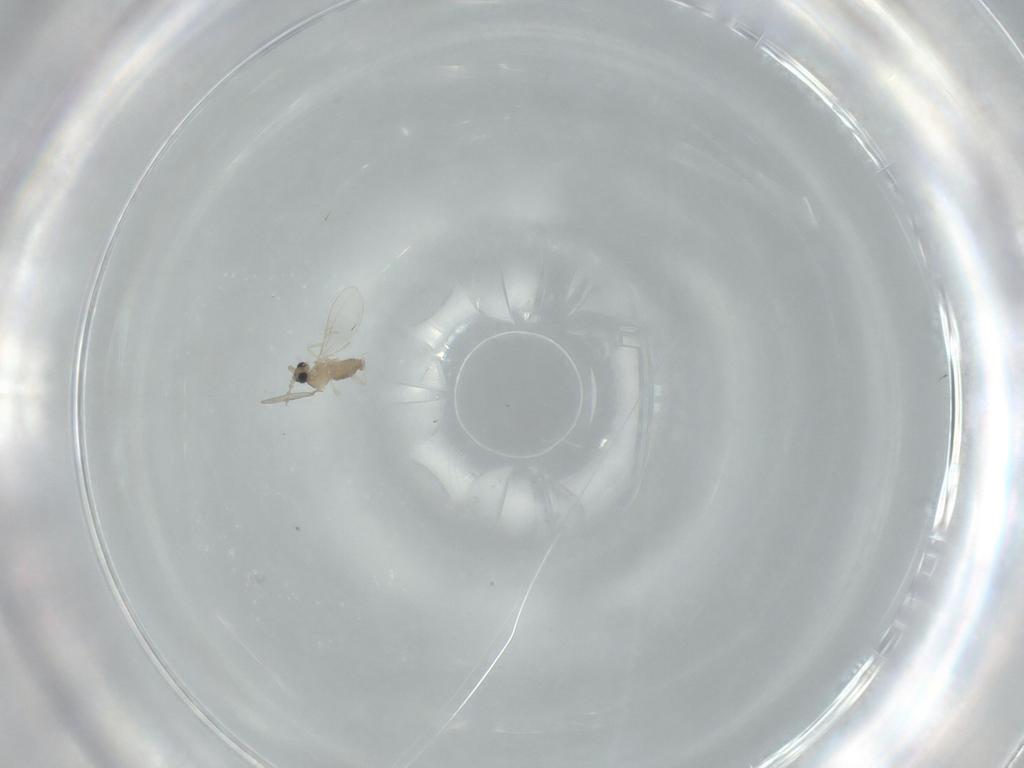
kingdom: Animalia
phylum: Arthropoda
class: Insecta
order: Diptera
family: Cecidomyiidae
